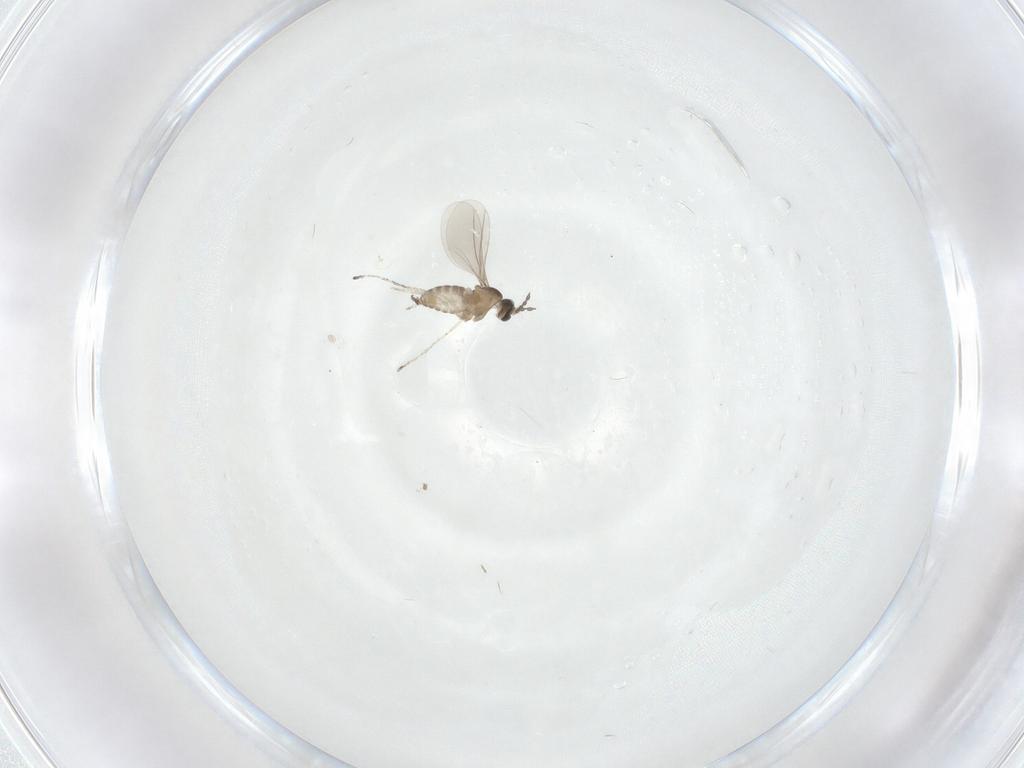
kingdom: Animalia
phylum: Arthropoda
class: Insecta
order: Diptera
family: Cecidomyiidae
